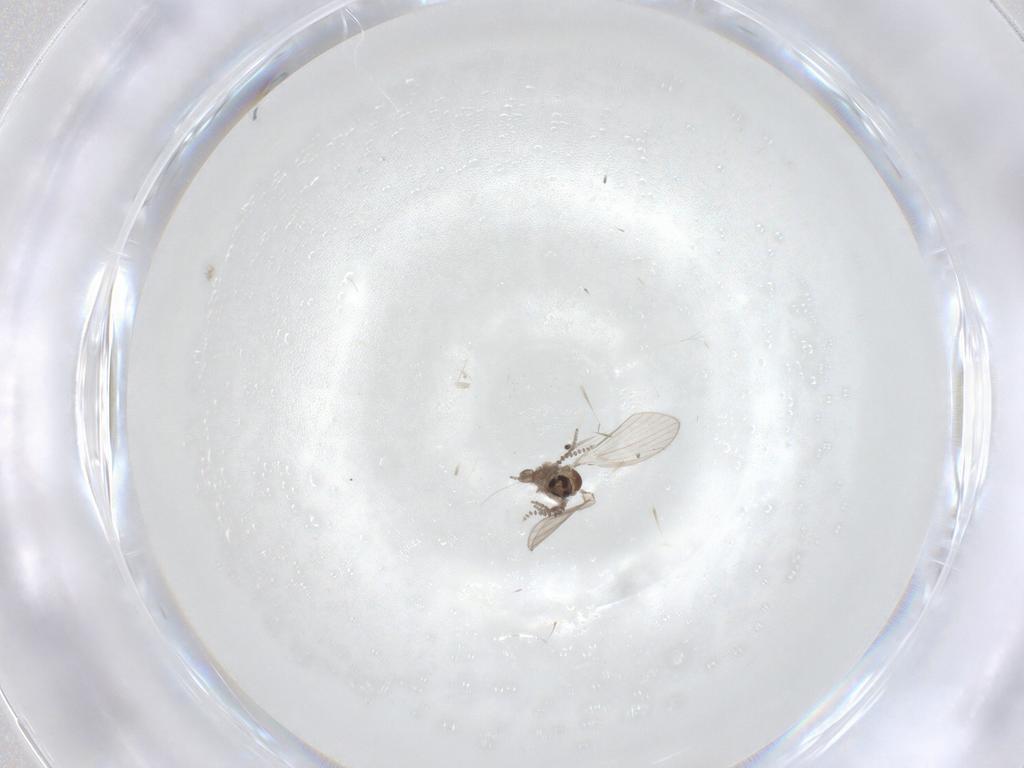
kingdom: Animalia
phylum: Arthropoda
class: Insecta
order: Diptera
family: Psychodidae
